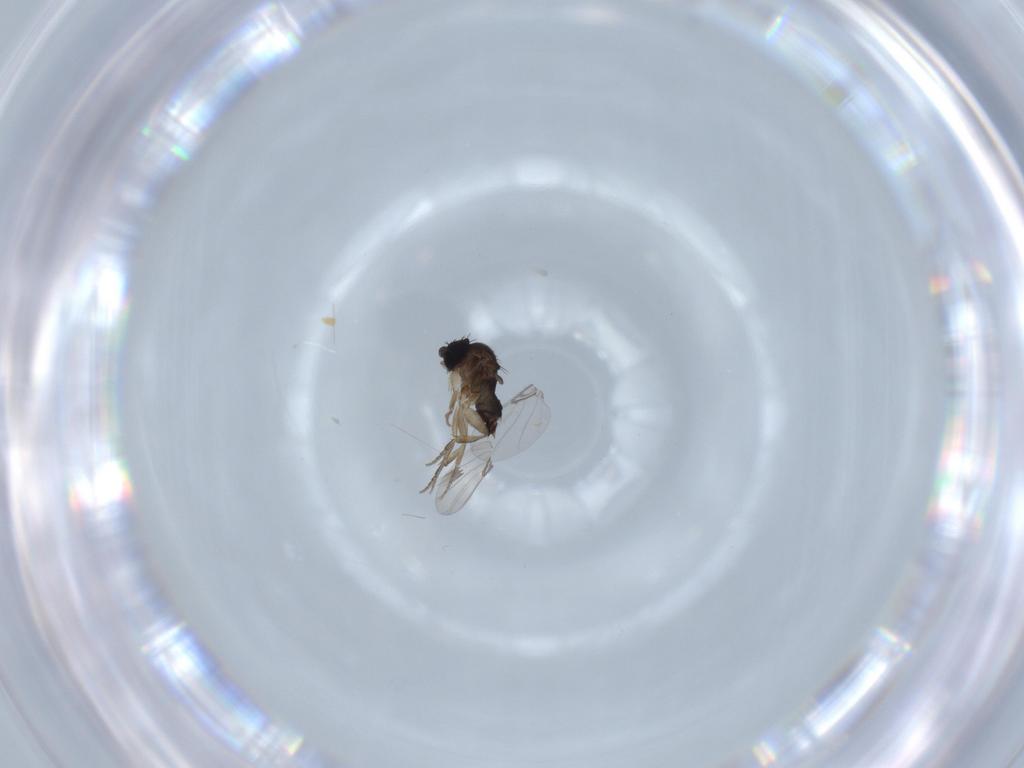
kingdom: Animalia
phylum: Arthropoda
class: Insecta
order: Diptera
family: Phoridae
